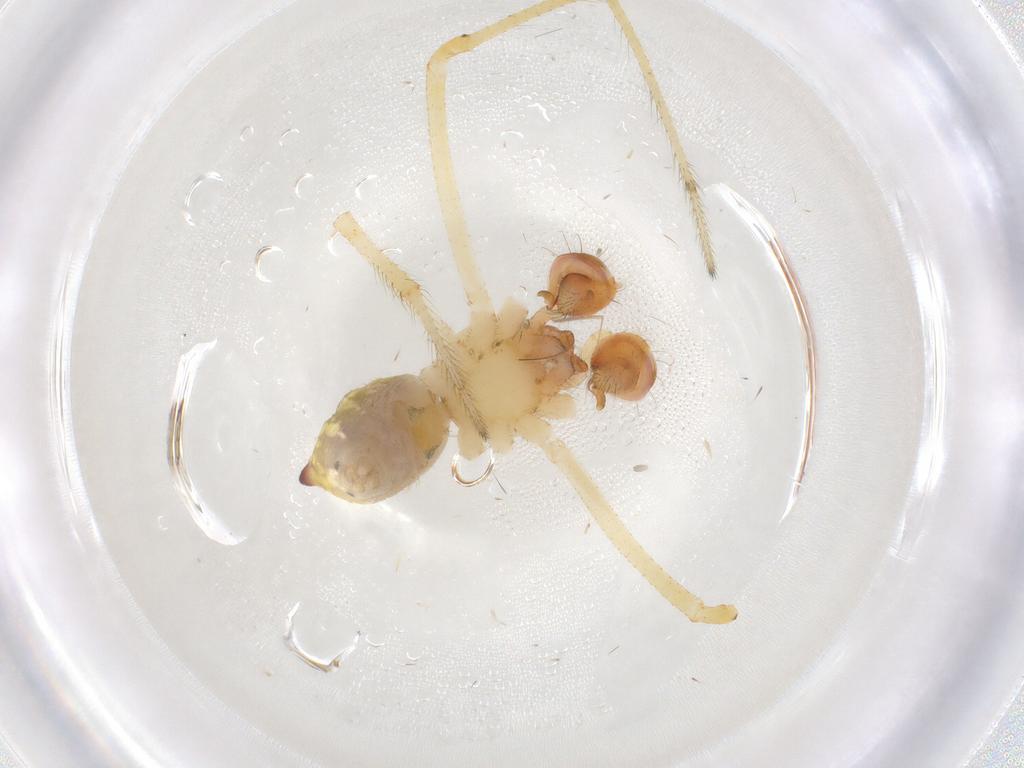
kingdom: Animalia
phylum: Arthropoda
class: Arachnida
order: Araneae
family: Theridiidae
